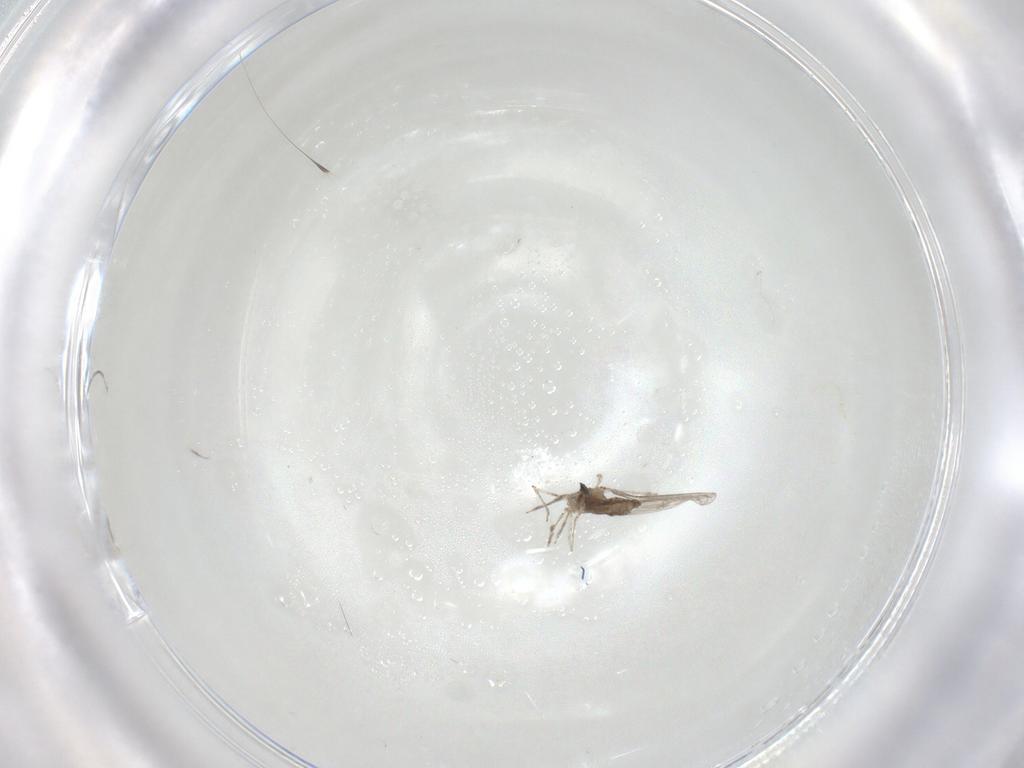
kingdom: Animalia
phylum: Arthropoda
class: Insecta
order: Diptera
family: Cecidomyiidae
